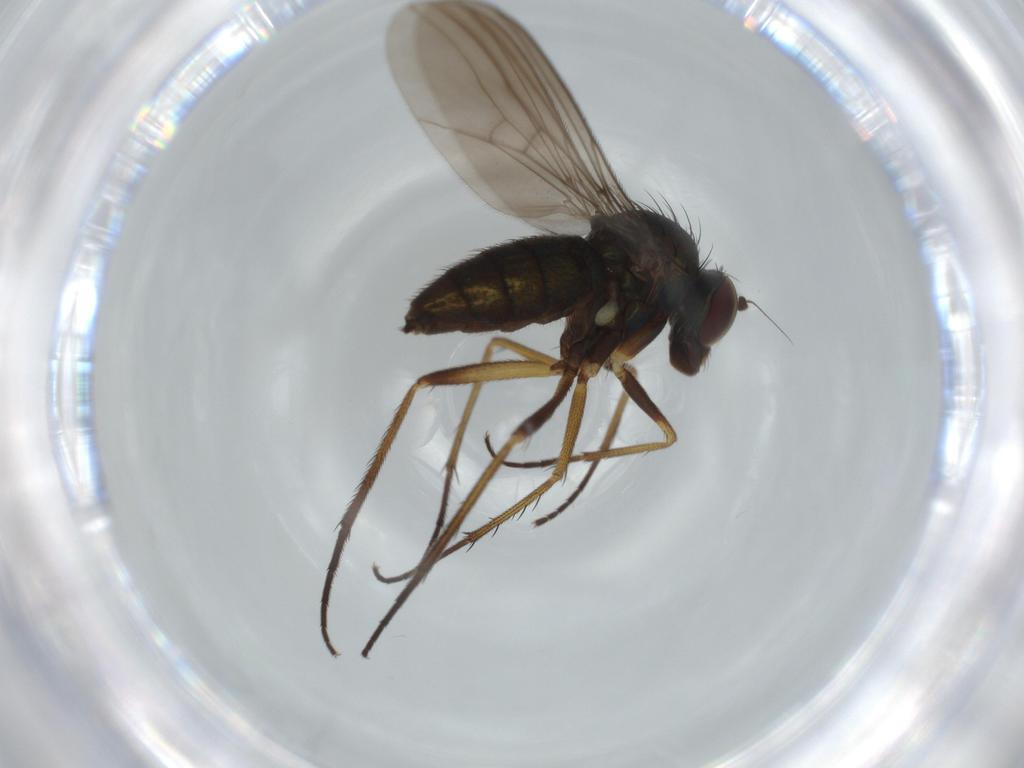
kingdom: Animalia
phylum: Arthropoda
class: Insecta
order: Diptera
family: Dolichopodidae
